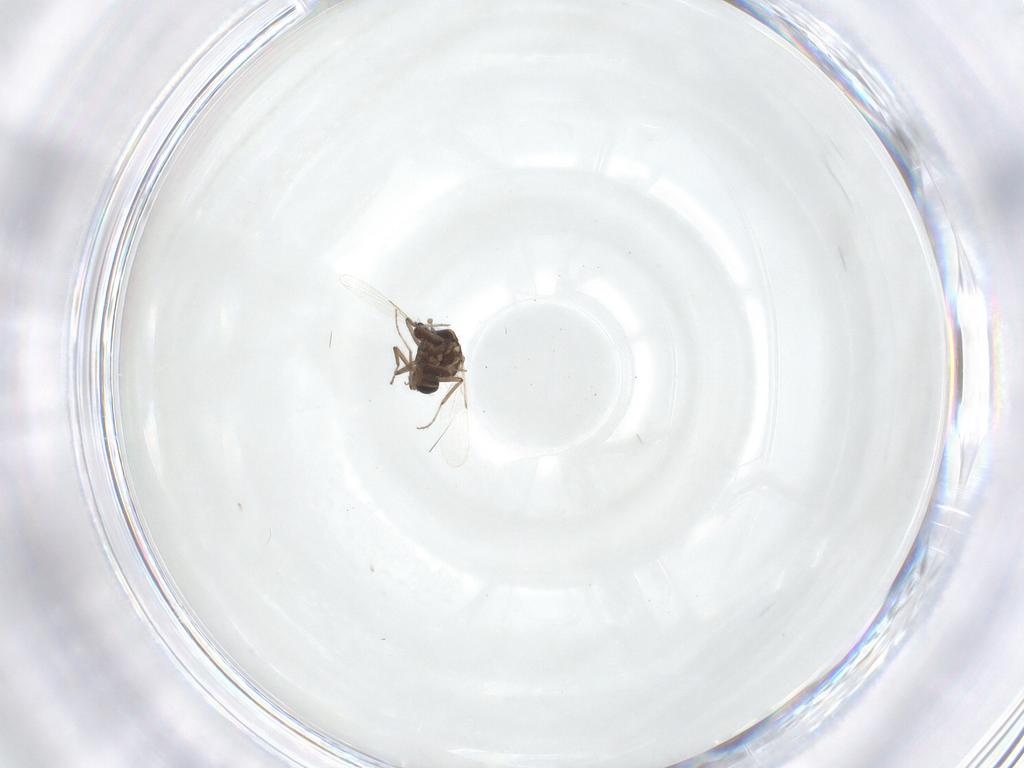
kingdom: Animalia
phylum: Arthropoda
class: Insecta
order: Diptera
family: Ceratopogonidae
